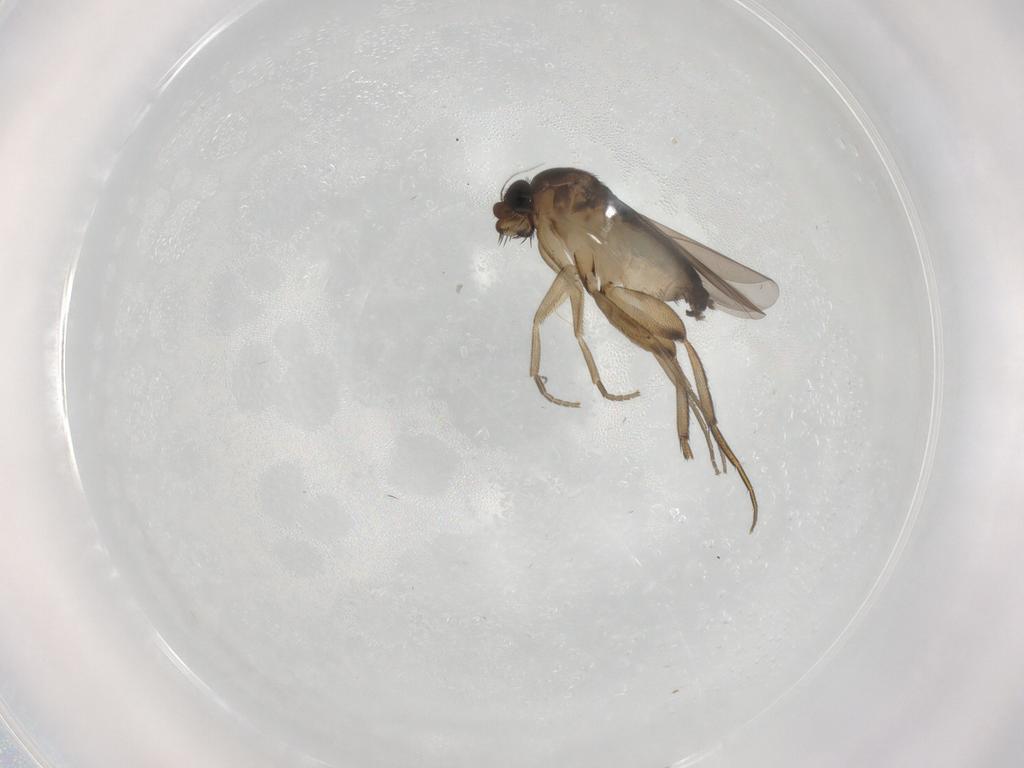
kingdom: Animalia
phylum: Arthropoda
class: Insecta
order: Diptera
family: Phoridae
